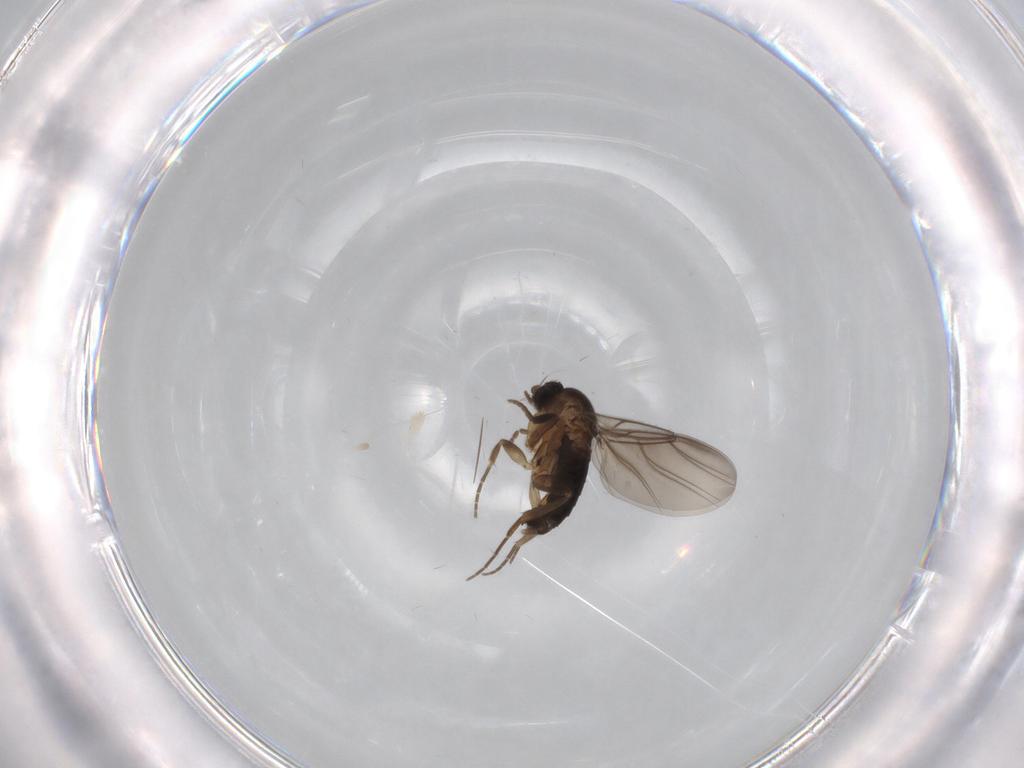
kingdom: Animalia
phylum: Arthropoda
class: Insecta
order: Diptera
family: Phoridae
